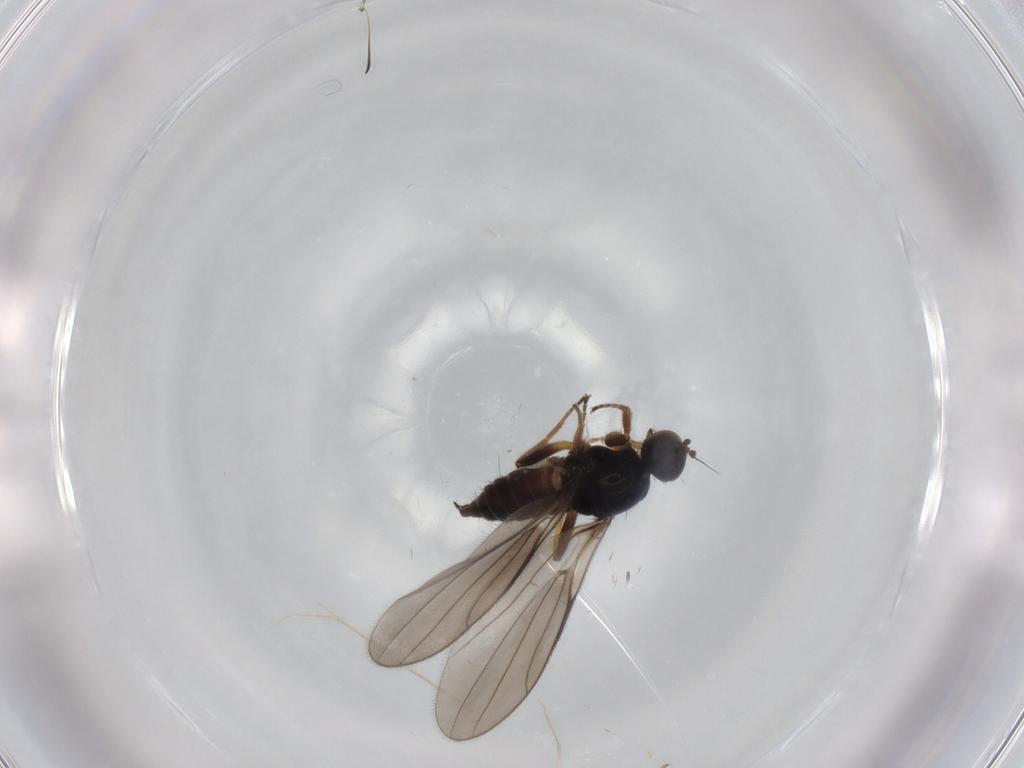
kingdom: Animalia
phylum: Arthropoda
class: Insecta
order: Diptera
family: Hybotidae
